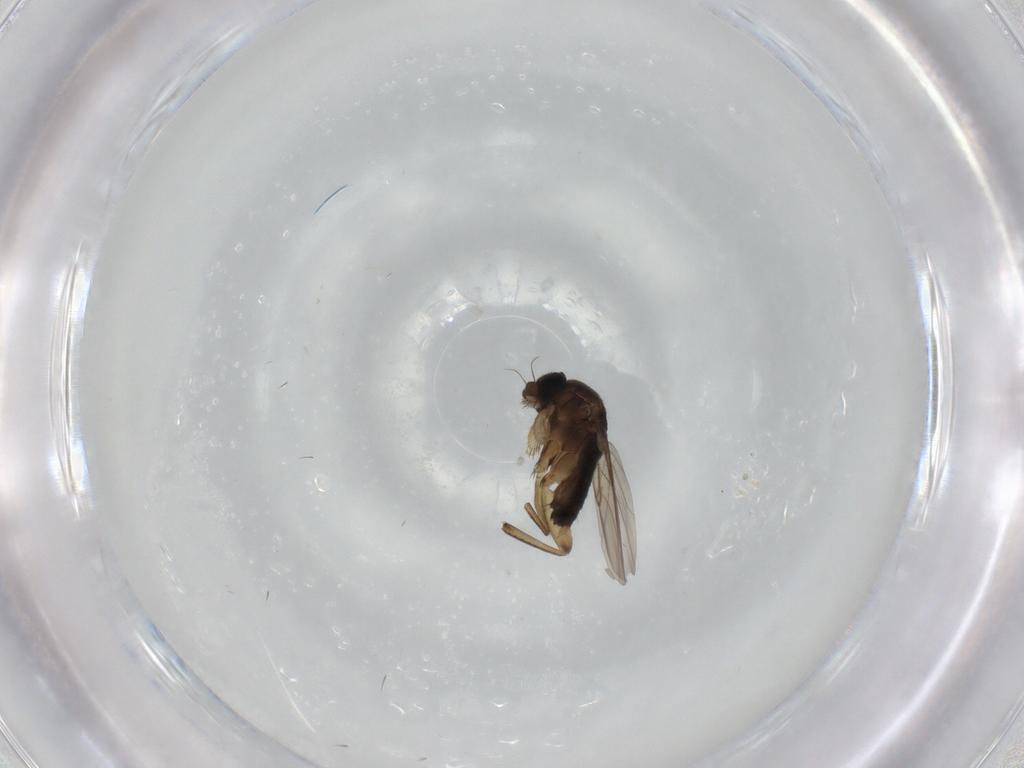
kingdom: Animalia
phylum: Arthropoda
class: Insecta
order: Diptera
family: Phoridae
